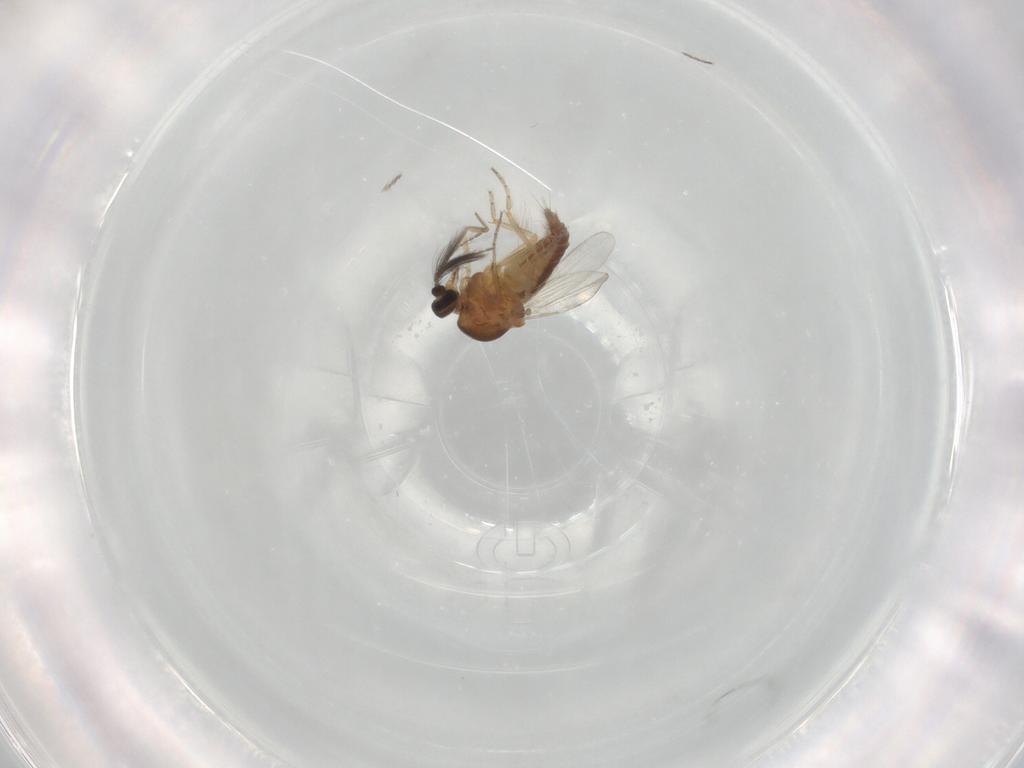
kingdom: Animalia
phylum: Arthropoda
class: Insecta
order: Diptera
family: Ceratopogonidae
